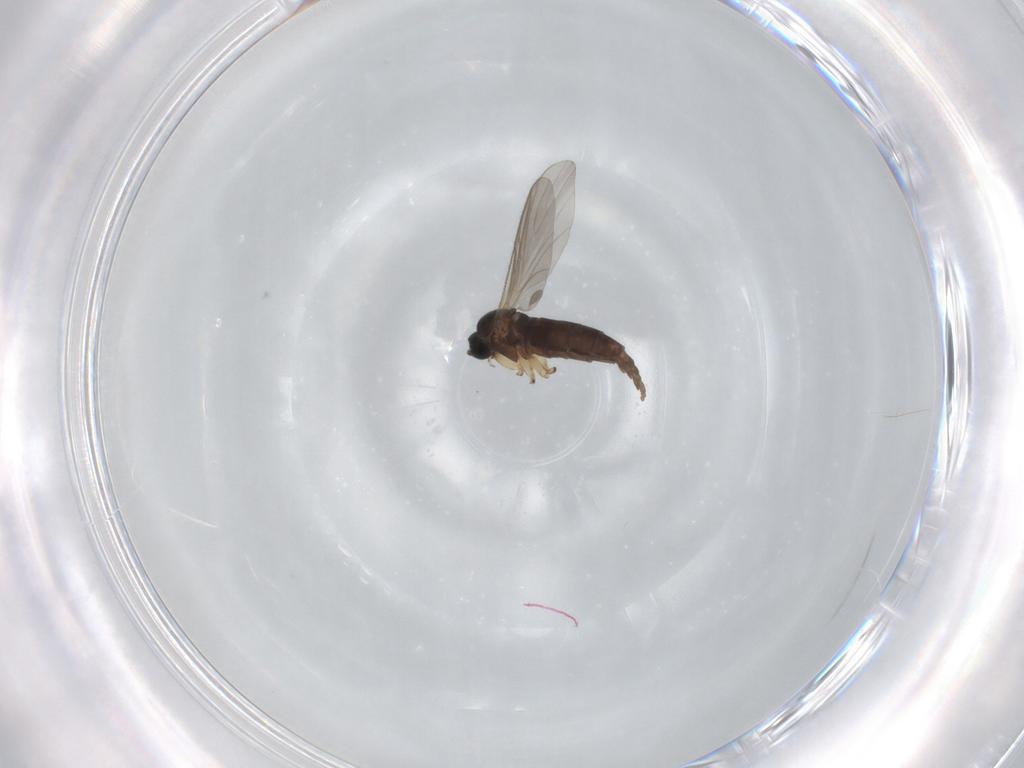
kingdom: Animalia
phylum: Arthropoda
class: Insecta
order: Diptera
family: Sciaridae
